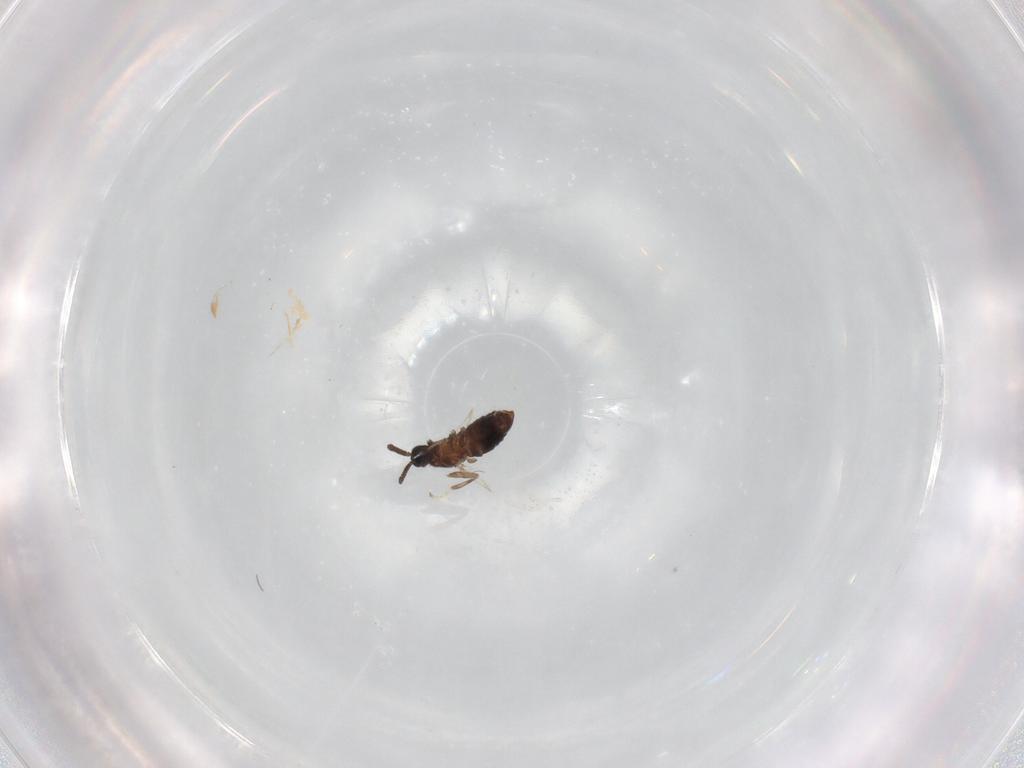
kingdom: Animalia
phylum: Arthropoda
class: Insecta
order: Diptera
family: Scatopsidae
